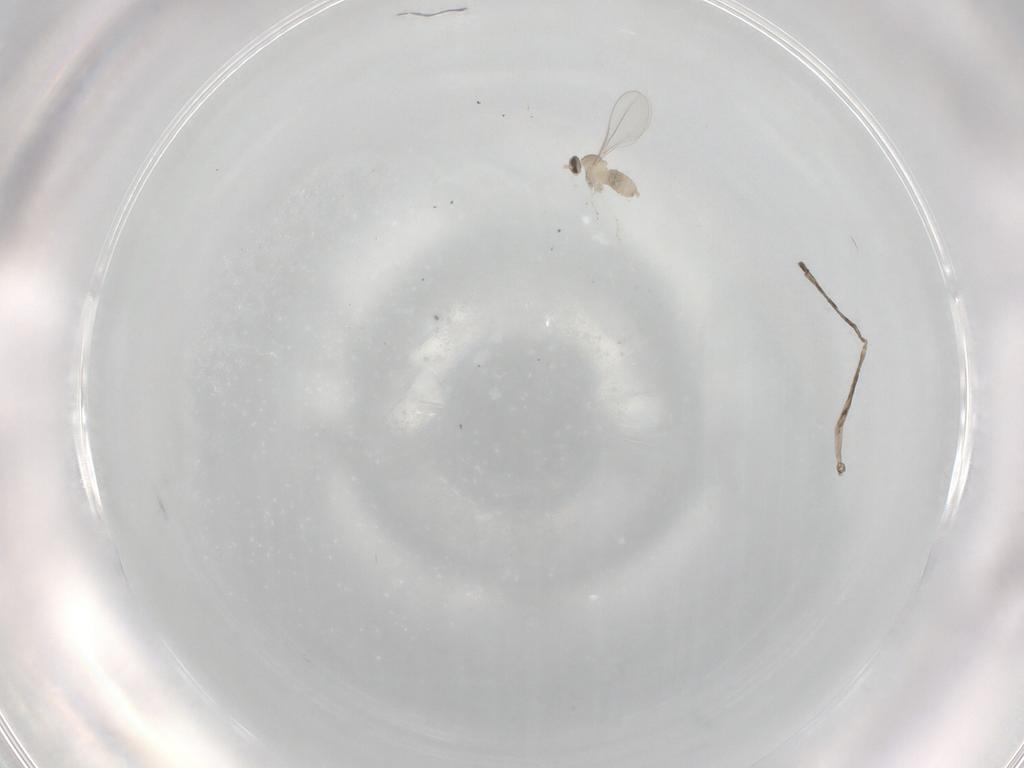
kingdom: Animalia
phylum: Arthropoda
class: Insecta
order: Diptera
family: Cecidomyiidae
